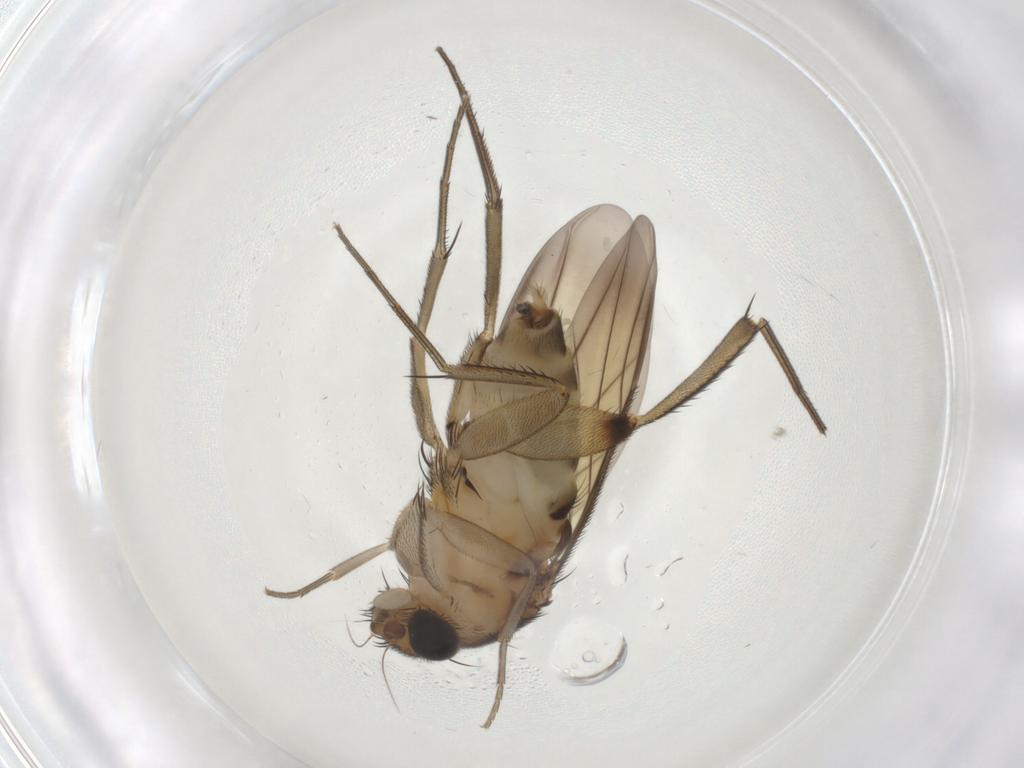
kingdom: Animalia
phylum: Arthropoda
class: Insecta
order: Diptera
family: Phoridae
